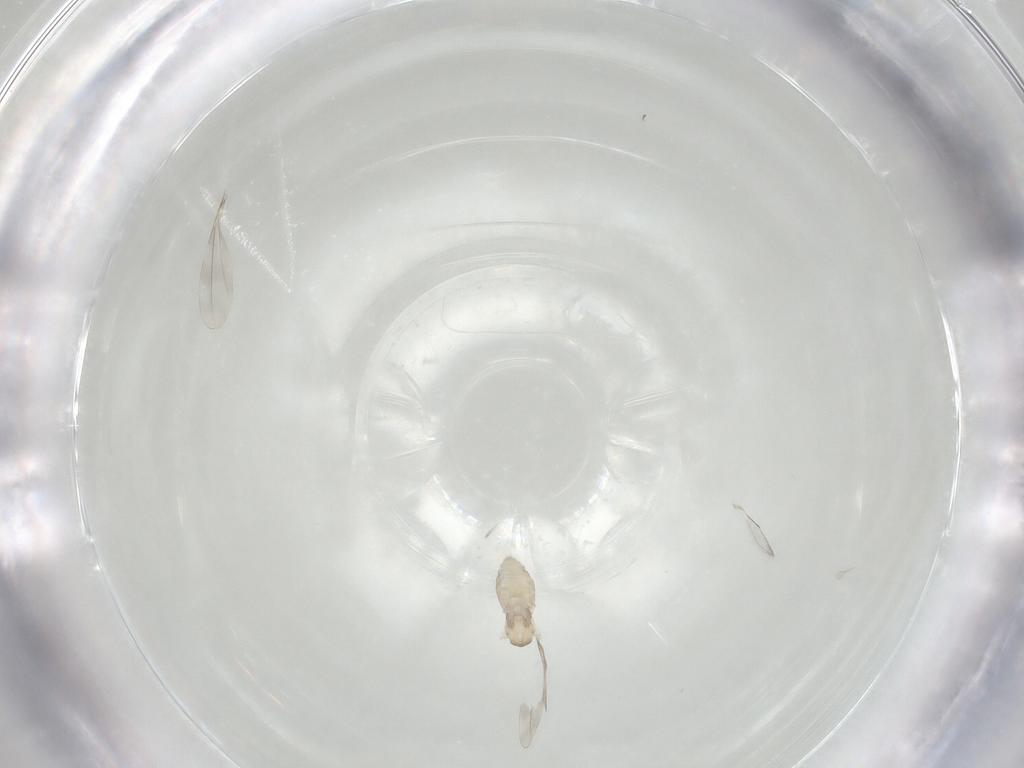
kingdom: Animalia
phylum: Arthropoda
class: Insecta
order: Diptera
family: Cecidomyiidae
